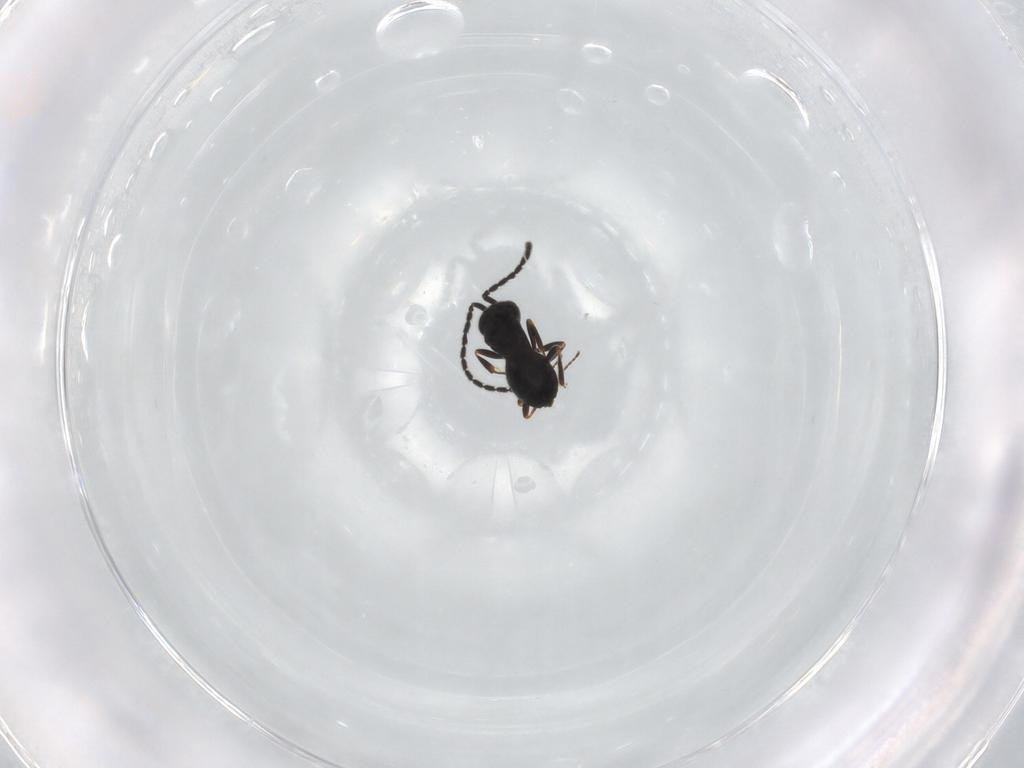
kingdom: Animalia
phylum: Arthropoda
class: Insecta
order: Hymenoptera
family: Scelionidae
